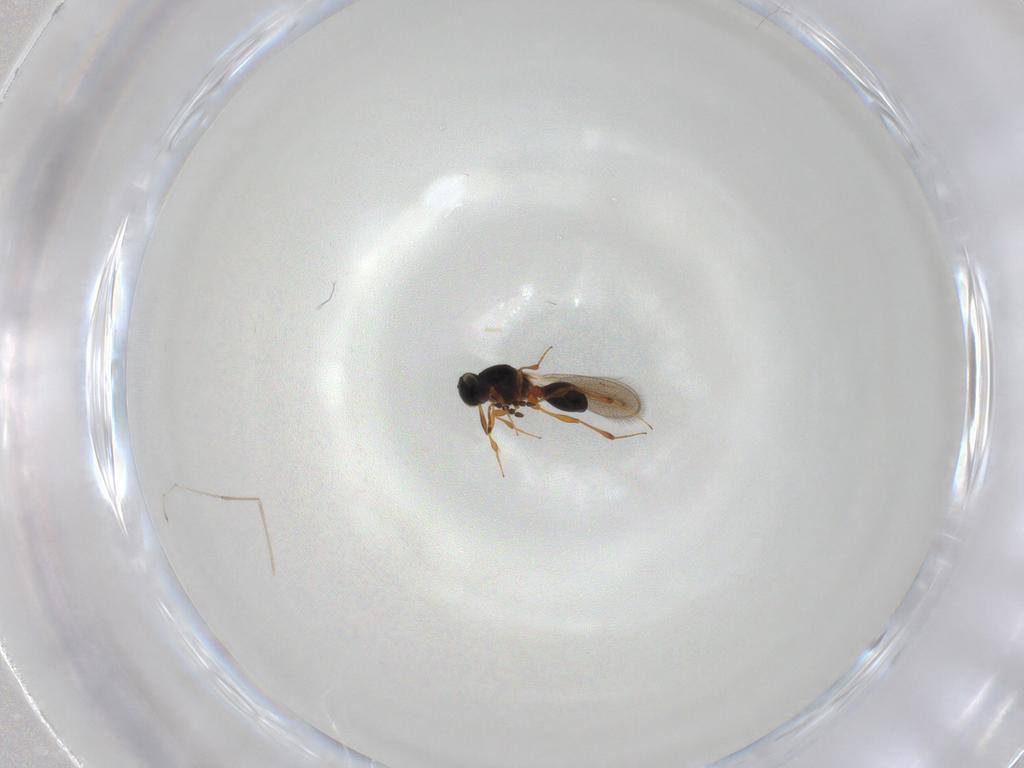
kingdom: Animalia
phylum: Arthropoda
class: Insecta
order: Hymenoptera
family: Platygastridae
